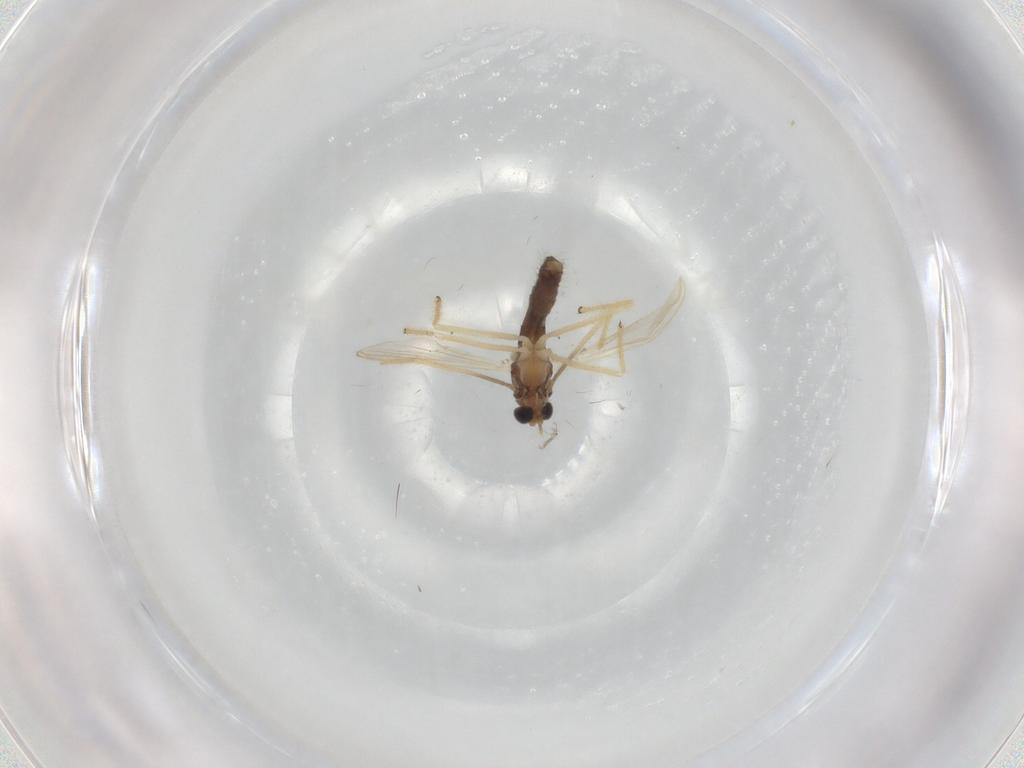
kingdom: Animalia
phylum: Arthropoda
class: Insecta
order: Diptera
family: Chironomidae
